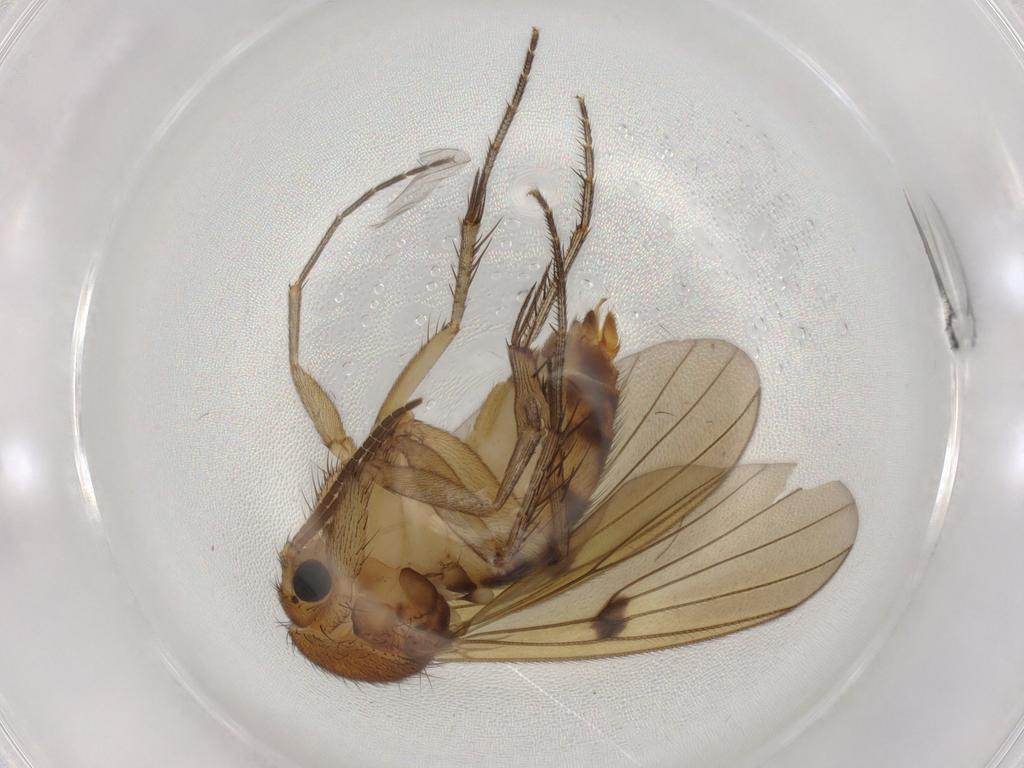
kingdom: Animalia
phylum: Arthropoda
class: Insecta
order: Diptera
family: Mycetophilidae
